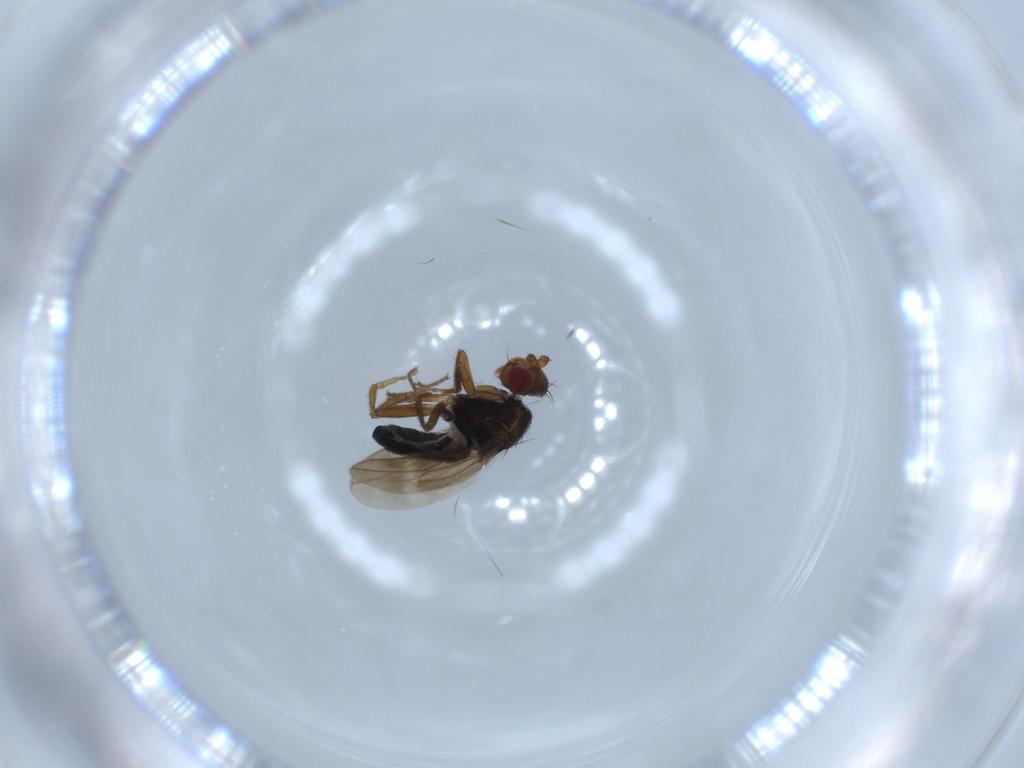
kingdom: Animalia
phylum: Arthropoda
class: Insecta
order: Diptera
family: Sphaeroceridae
